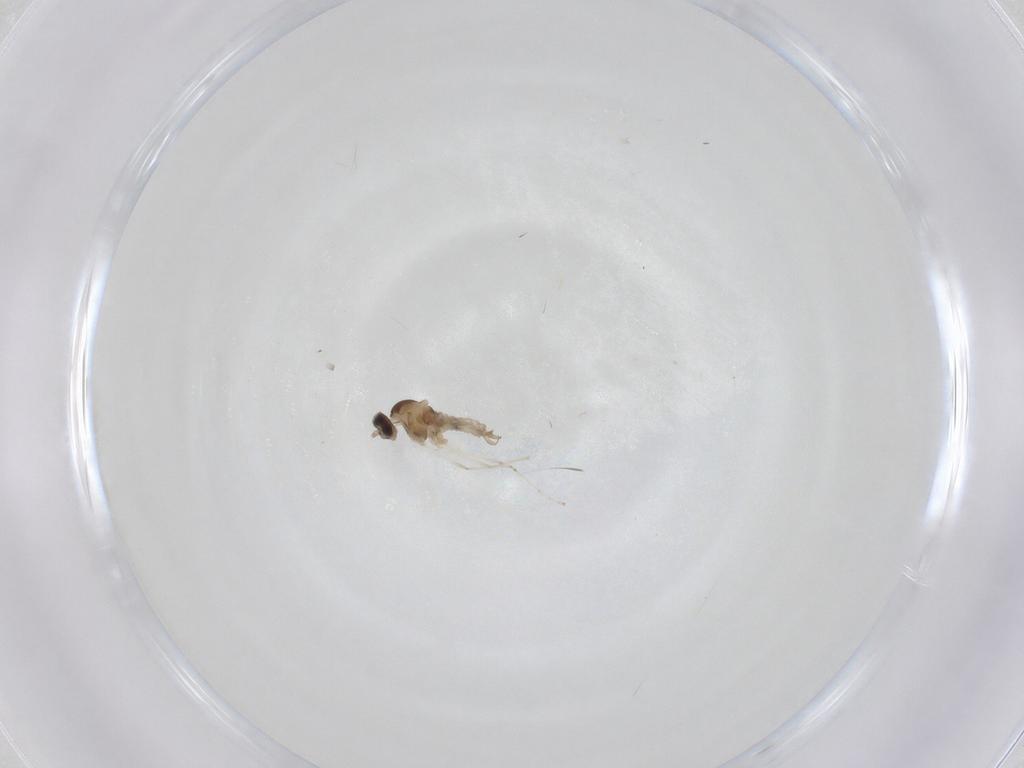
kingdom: Animalia
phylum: Arthropoda
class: Insecta
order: Diptera
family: Cecidomyiidae
